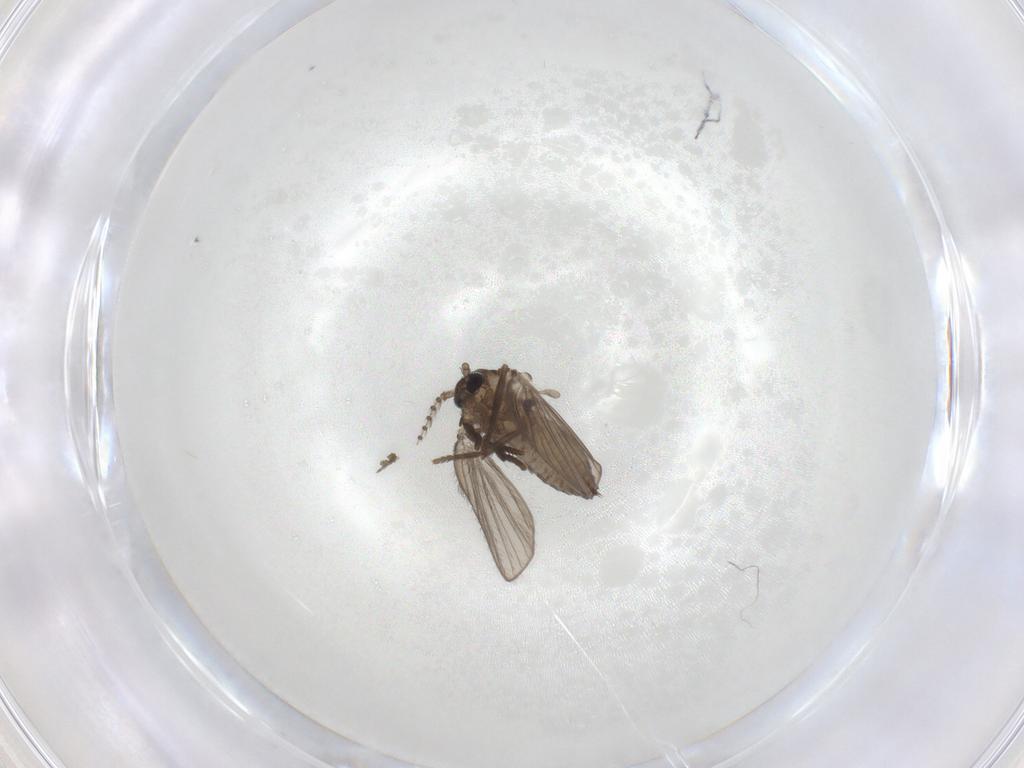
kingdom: Animalia
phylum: Arthropoda
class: Insecta
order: Diptera
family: Psychodidae
